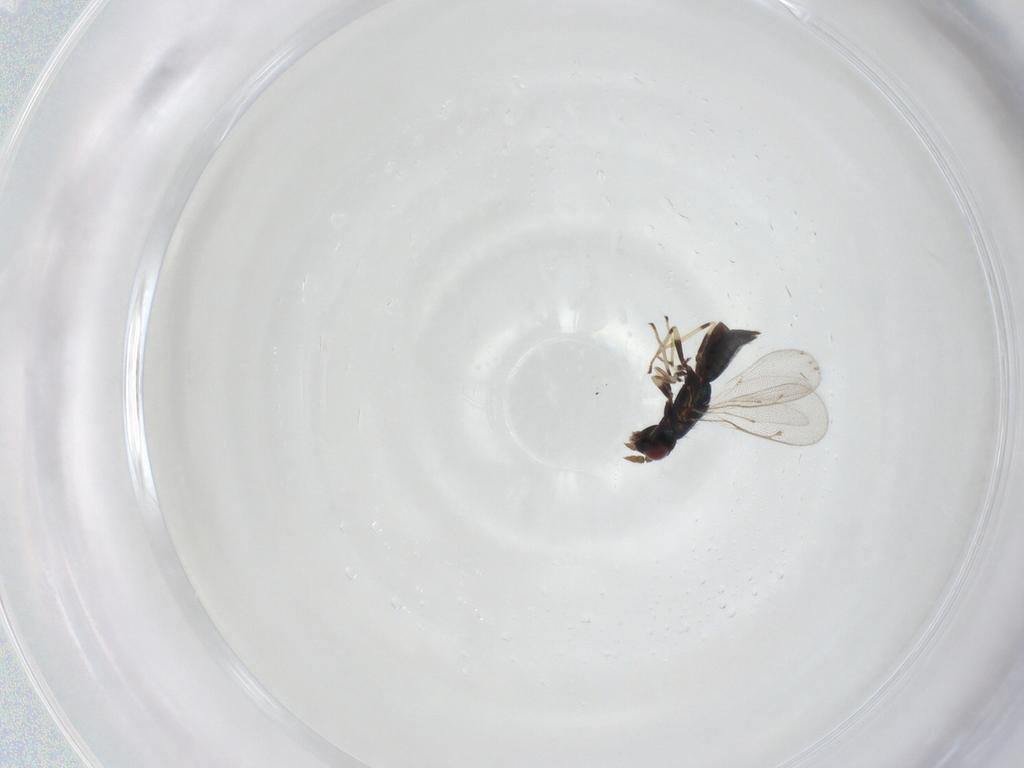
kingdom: Animalia
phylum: Arthropoda
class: Insecta
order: Hymenoptera
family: Eulophidae
